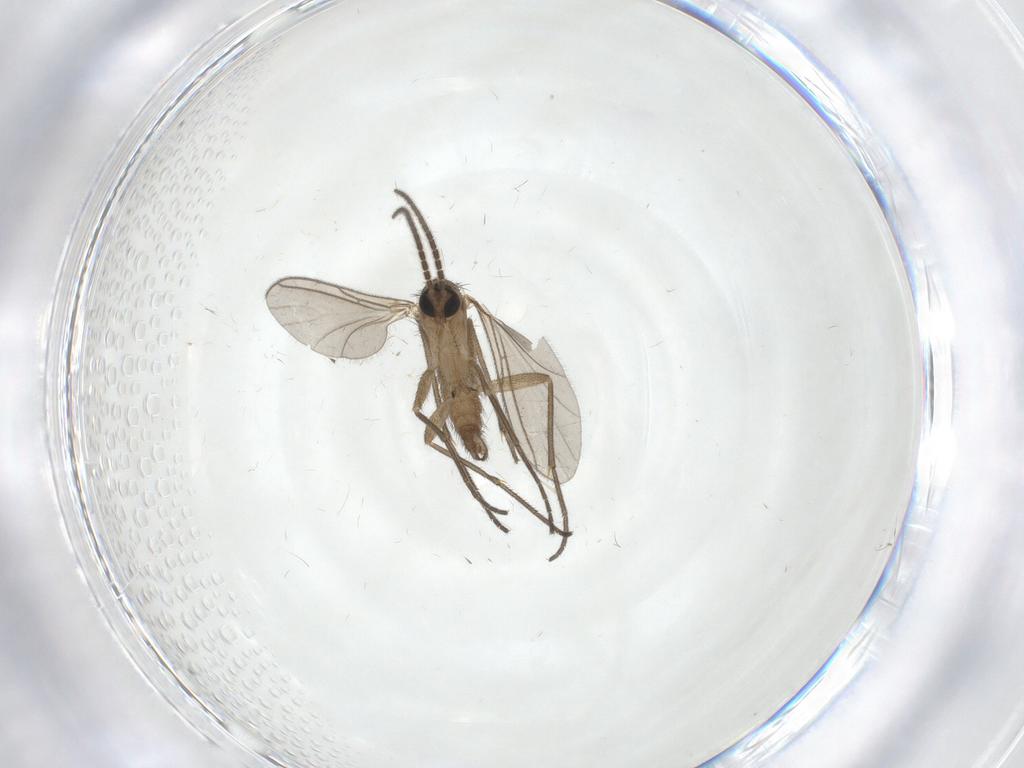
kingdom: Animalia
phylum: Arthropoda
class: Insecta
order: Diptera
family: Sciaridae
